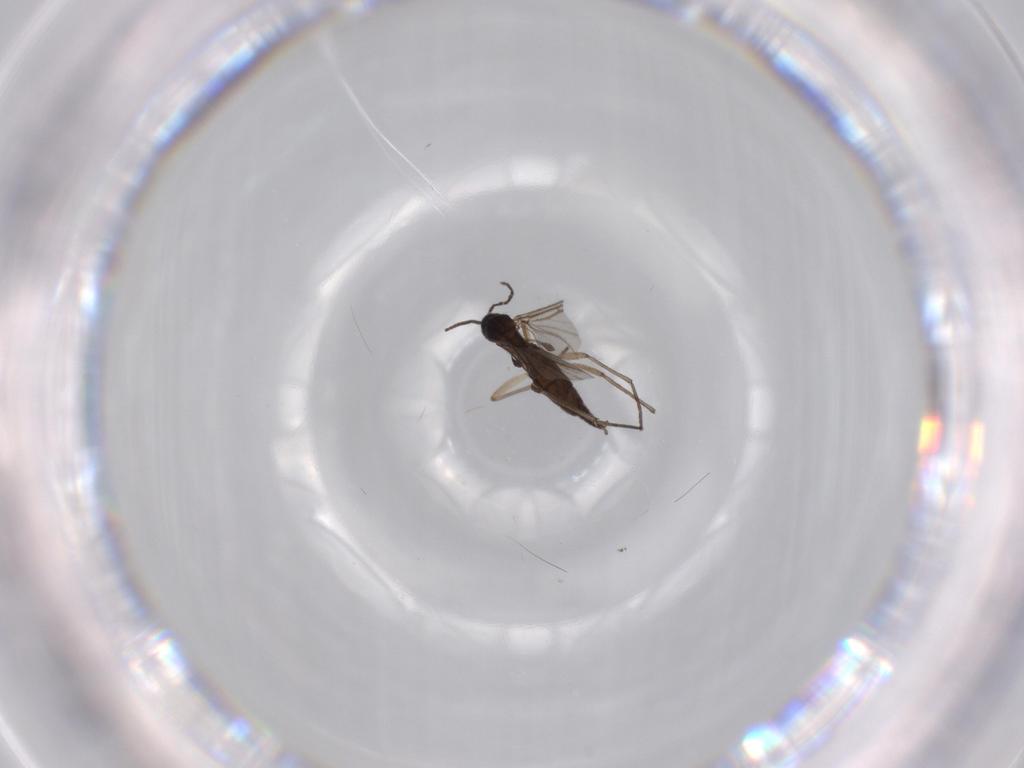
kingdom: Animalia
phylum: Arthropoda
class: Insecta
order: Diptera
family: Sciaridae
